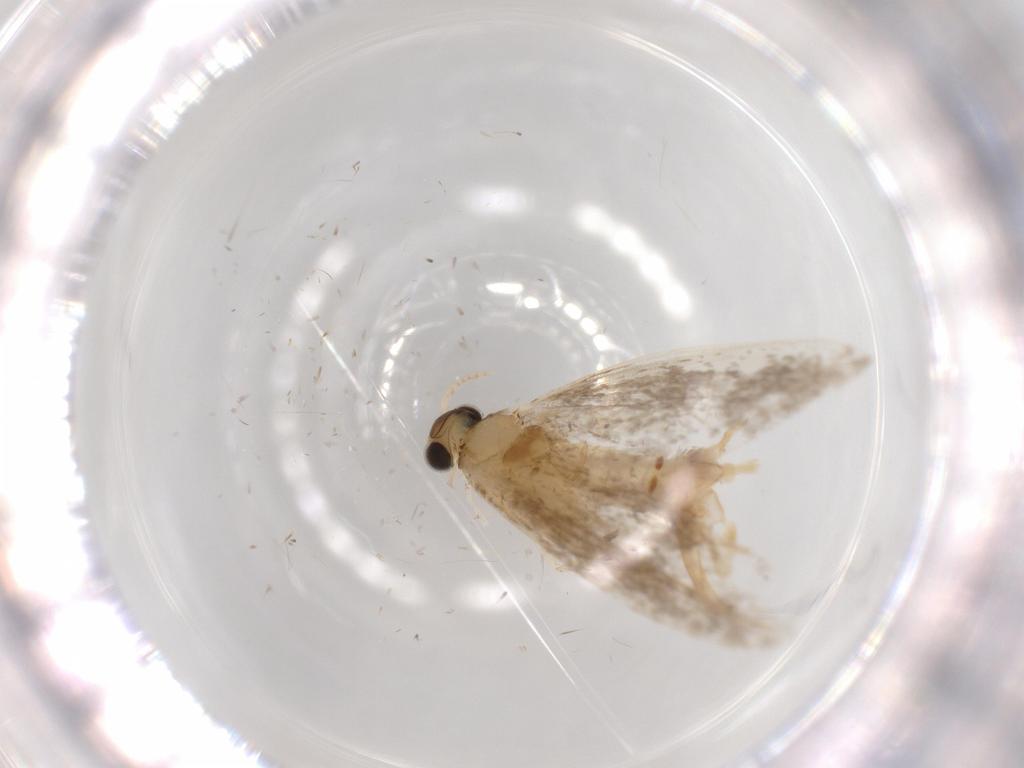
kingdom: Animalia
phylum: Arthropoda
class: Insecta
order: Lepidoptera
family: Tineidae
